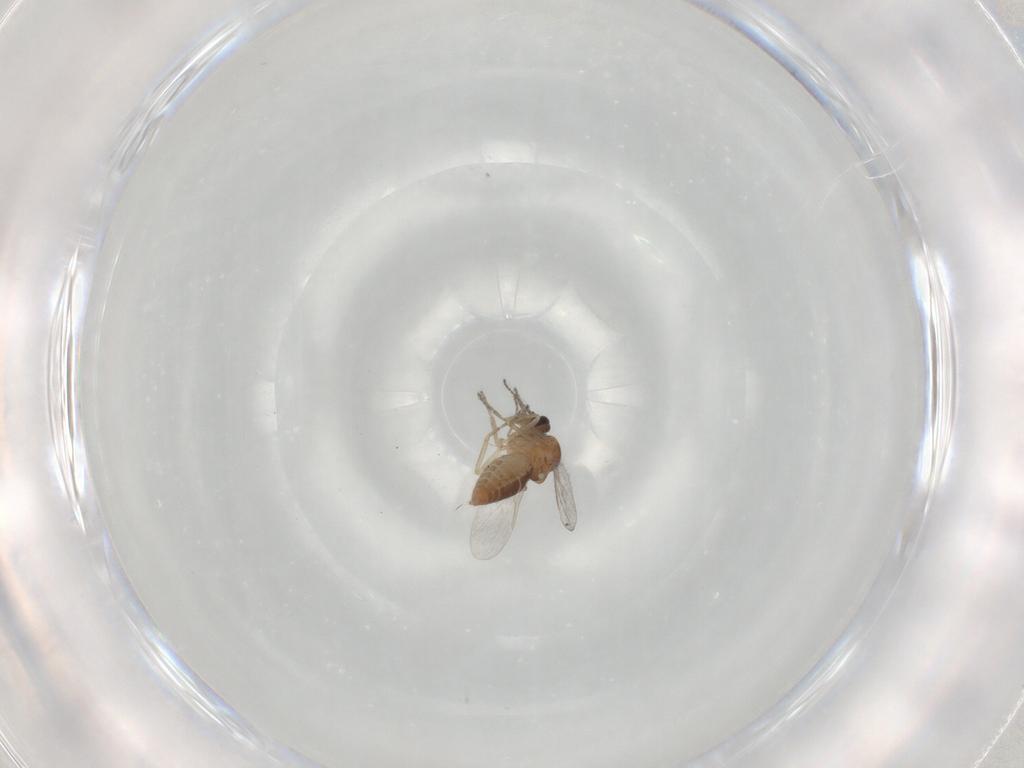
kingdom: Animalia
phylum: Arthropoda
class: Insecta
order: Diptera
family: Ceratopogonidae
